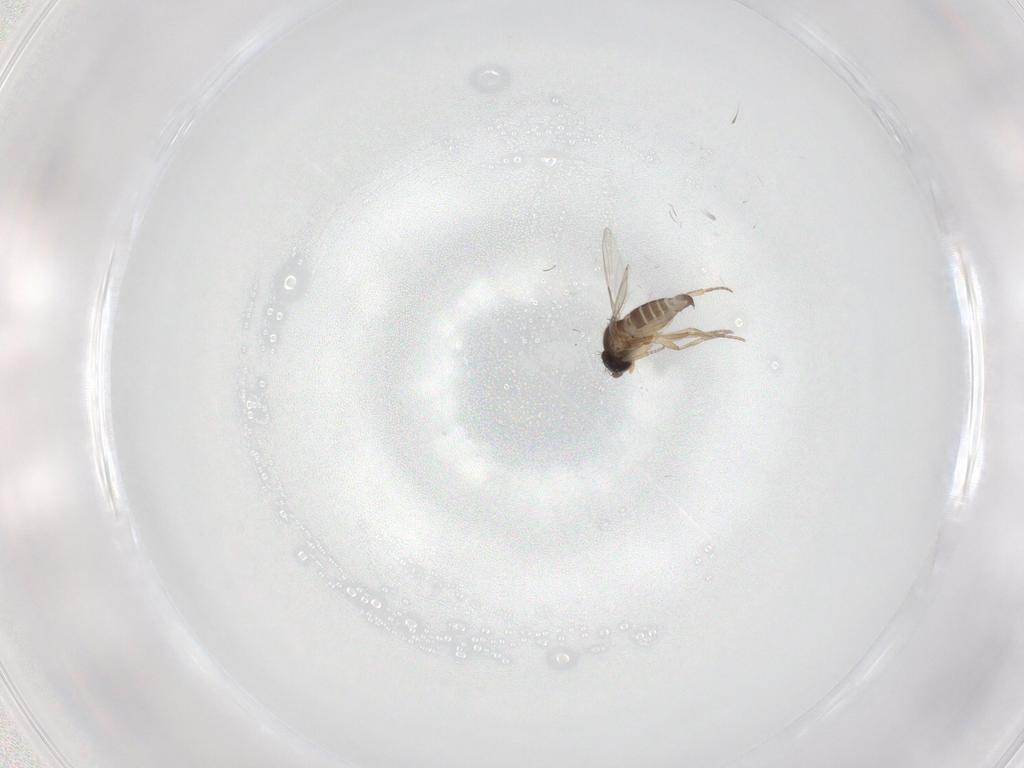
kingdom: Animalia
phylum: Arthropoda
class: Insecta
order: Diptera
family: Phoridae
